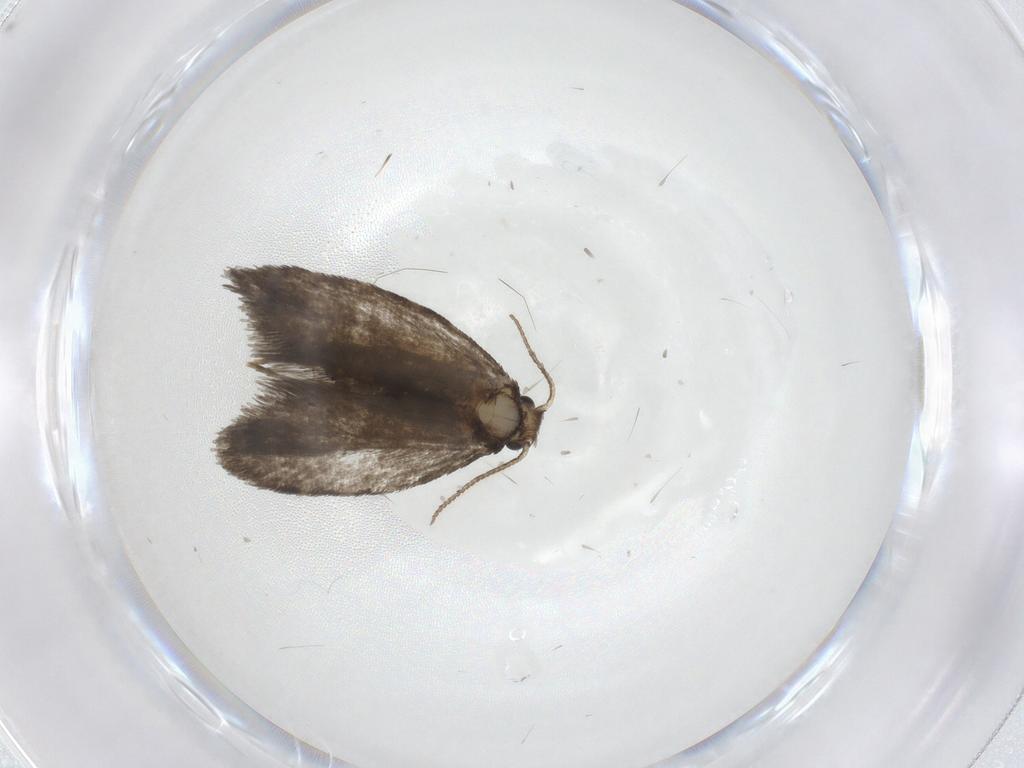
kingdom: Animalia
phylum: Arthropoda
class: Insecta
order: Lepidoptera
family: Psychidae
